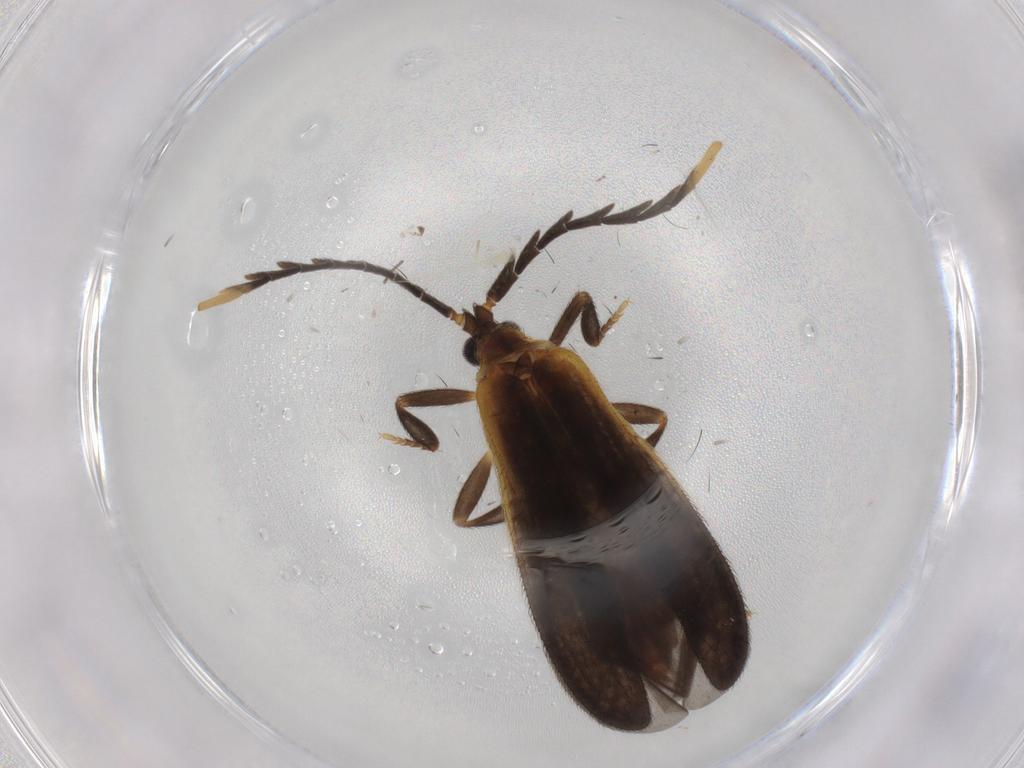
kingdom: Animalia
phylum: Arthropoda
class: Insecta
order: Coleoptera
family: Lycidae
